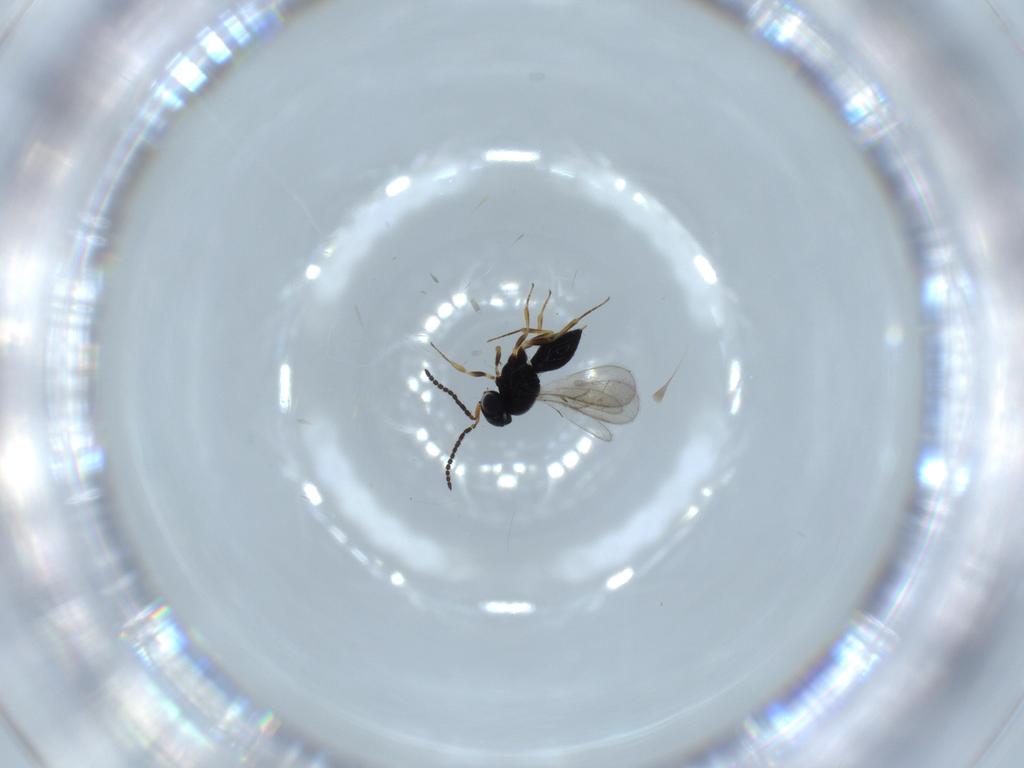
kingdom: Animalia
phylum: Arthropoda
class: Insecta
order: Hymenoptera
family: Scelionidae
